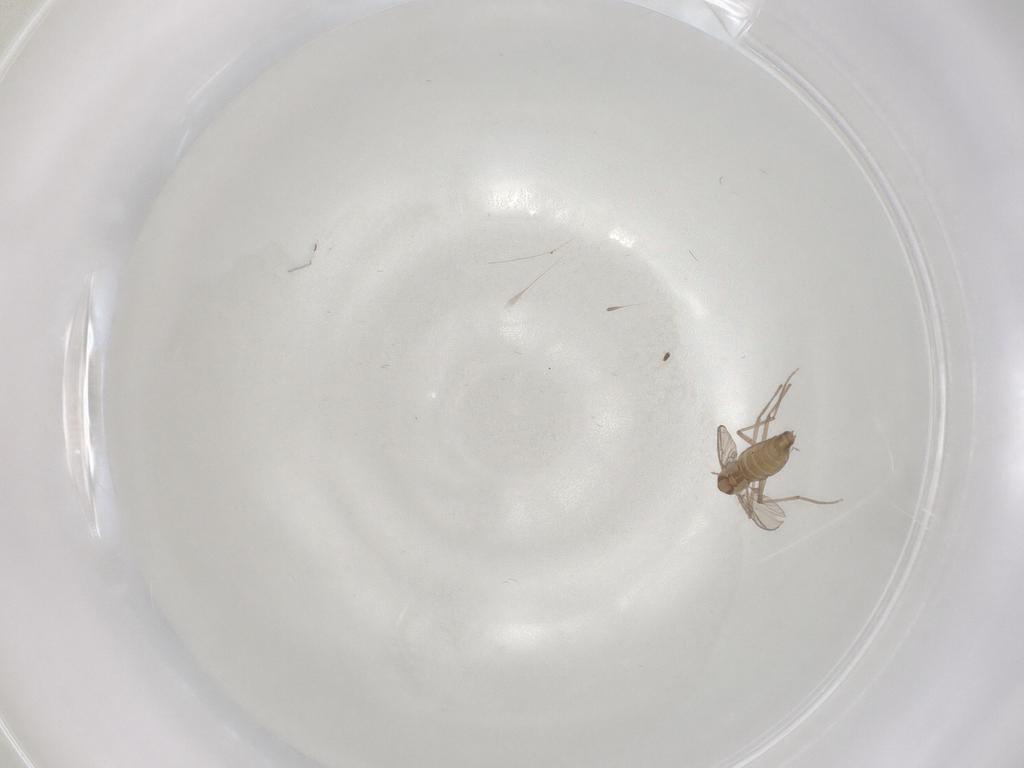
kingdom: Animalia
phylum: Arthropoda
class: Insecta
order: Diptera
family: Chironomidae
